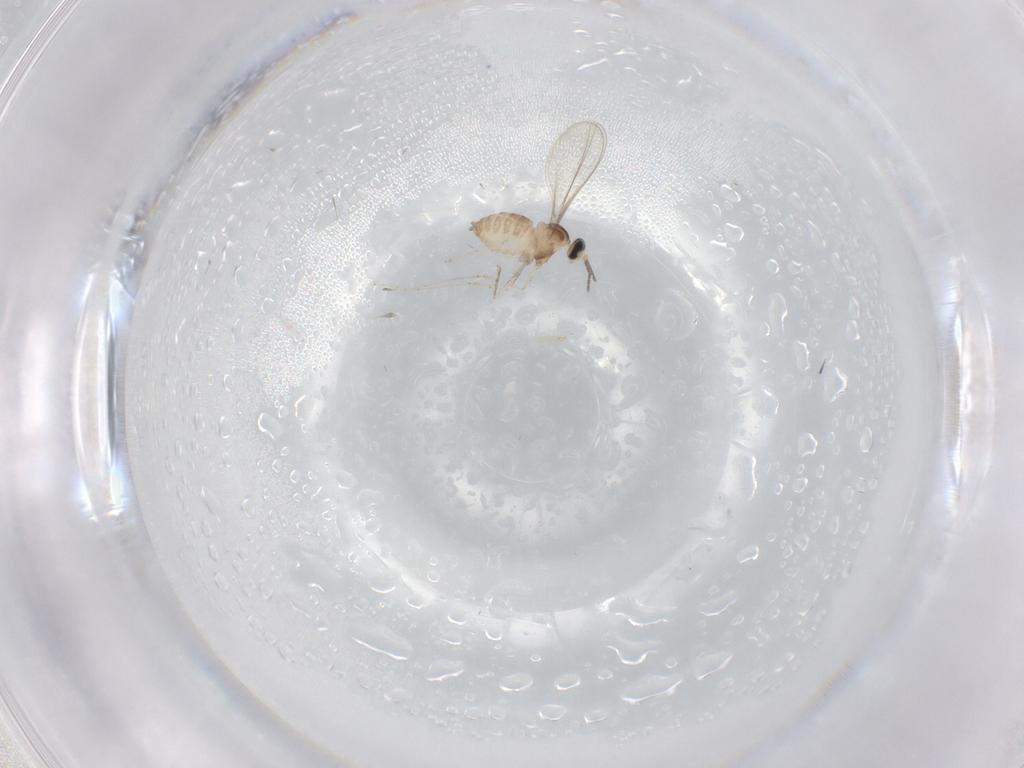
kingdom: Animalia
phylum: Arthropoda
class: Insecta
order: Diptera
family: Cecidomyiidae
